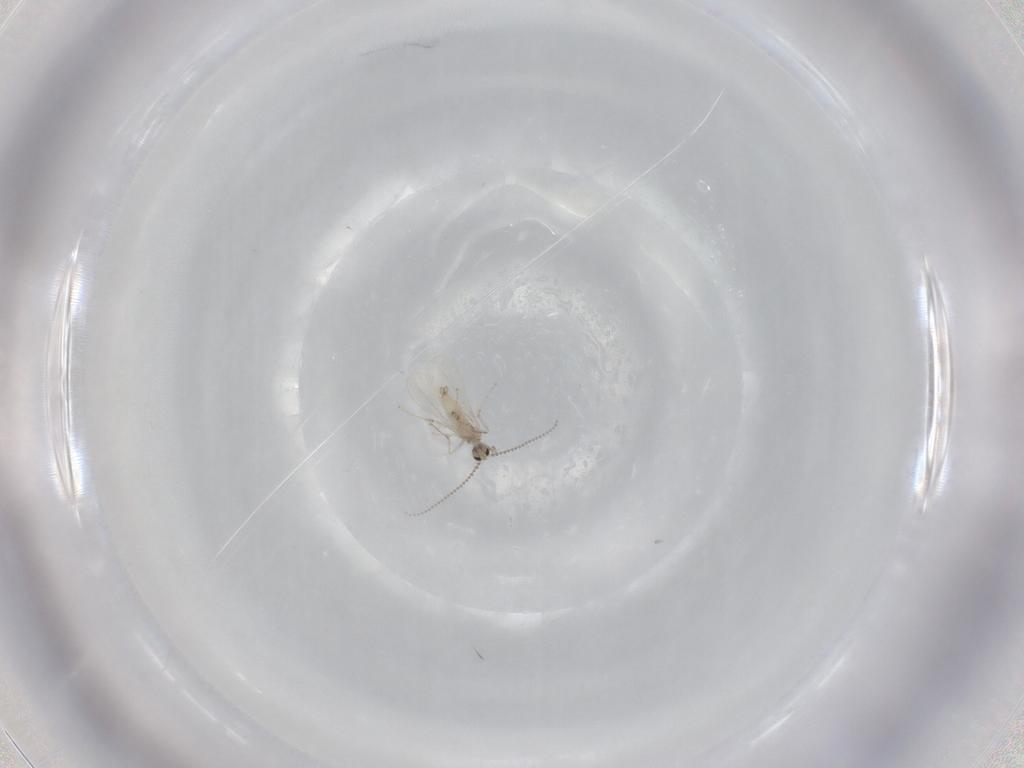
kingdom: Animalia
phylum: Arthropoda
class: Insecta
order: Diptera
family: Cecidomyiidae
